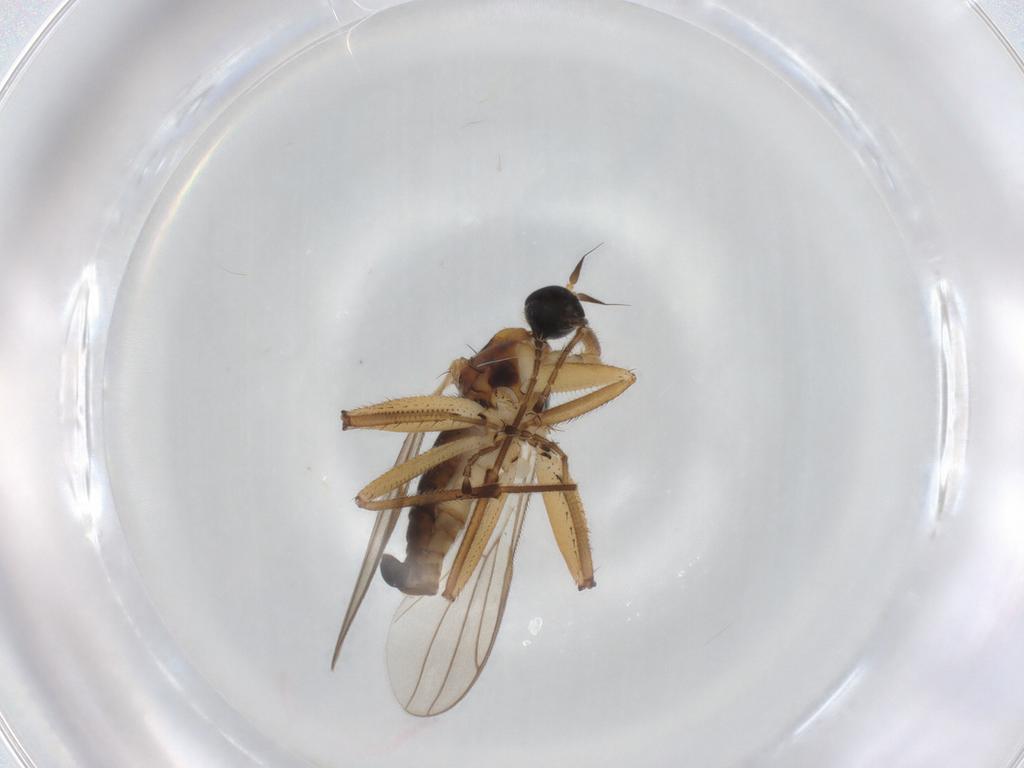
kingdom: Animalia
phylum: Arthropoda
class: Insecta
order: Diptera
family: Hybotidae
